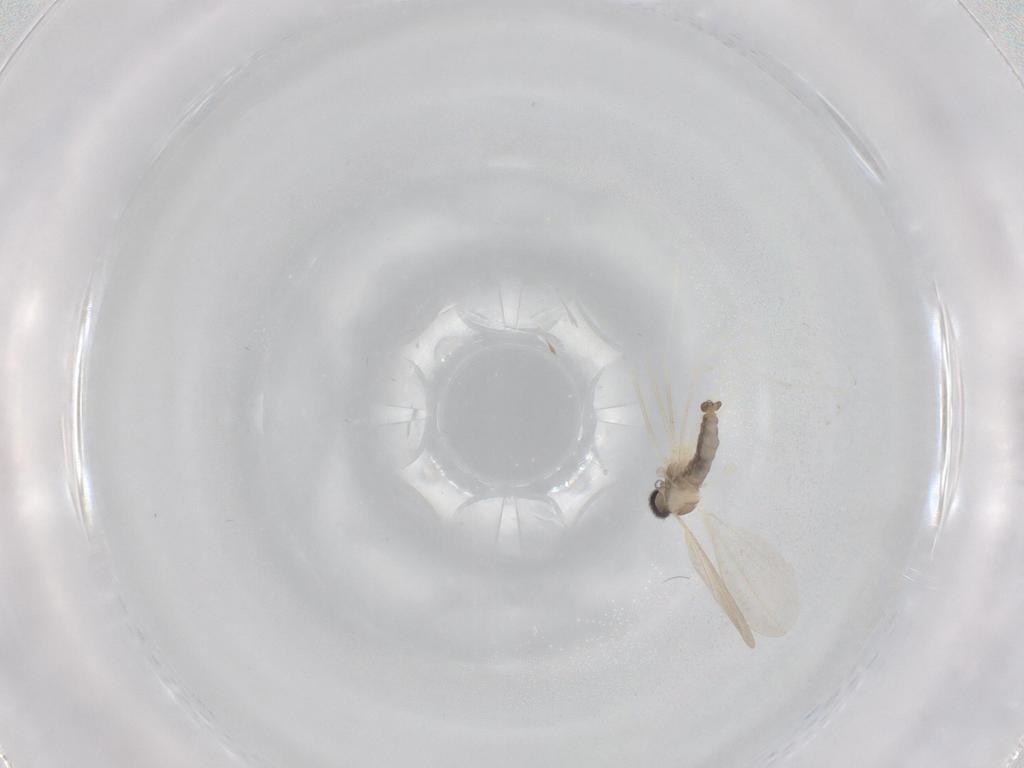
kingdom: Animalia
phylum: Arthropoda
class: Insecta
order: Diptera
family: Cecidomyiidae
